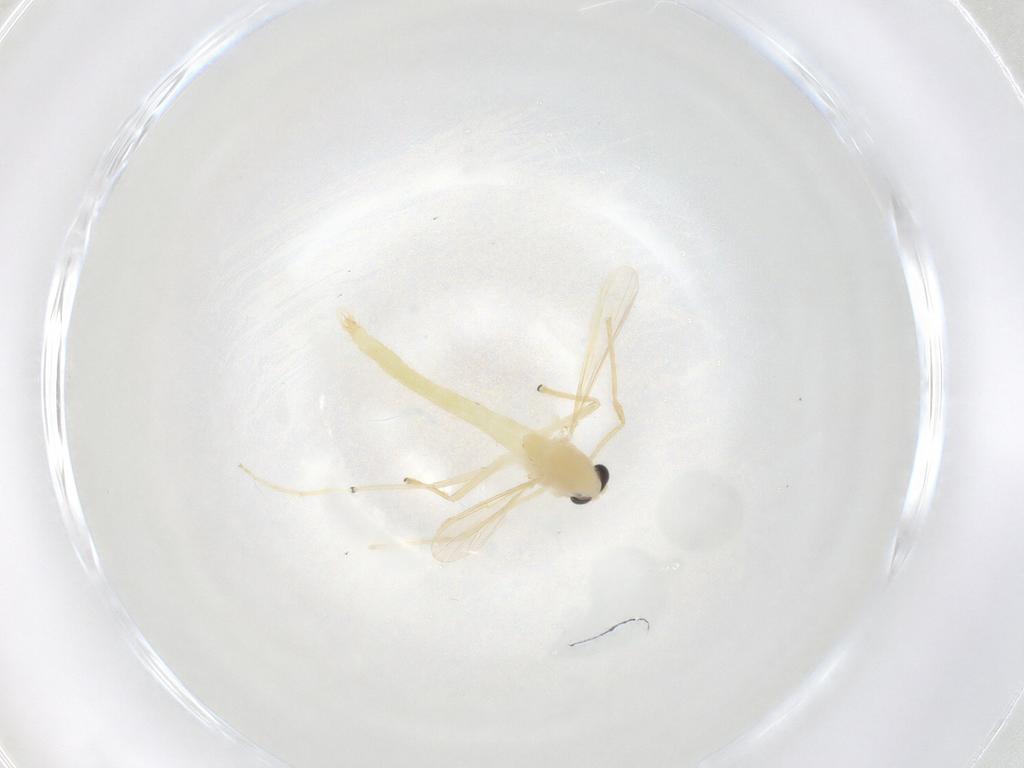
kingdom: Animalia
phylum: Arthropoda
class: Insecta
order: Diptera
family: Chironomidae
